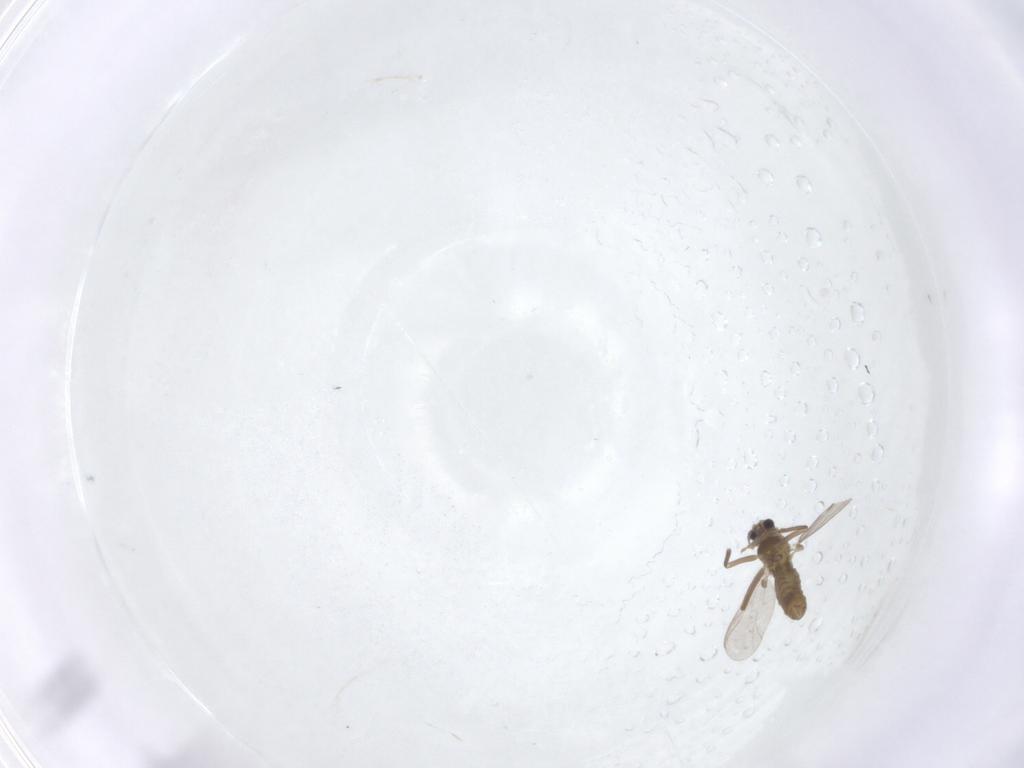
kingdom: Animalia
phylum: Arthropoda
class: Insecta
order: Diptera
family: Chironomidae
